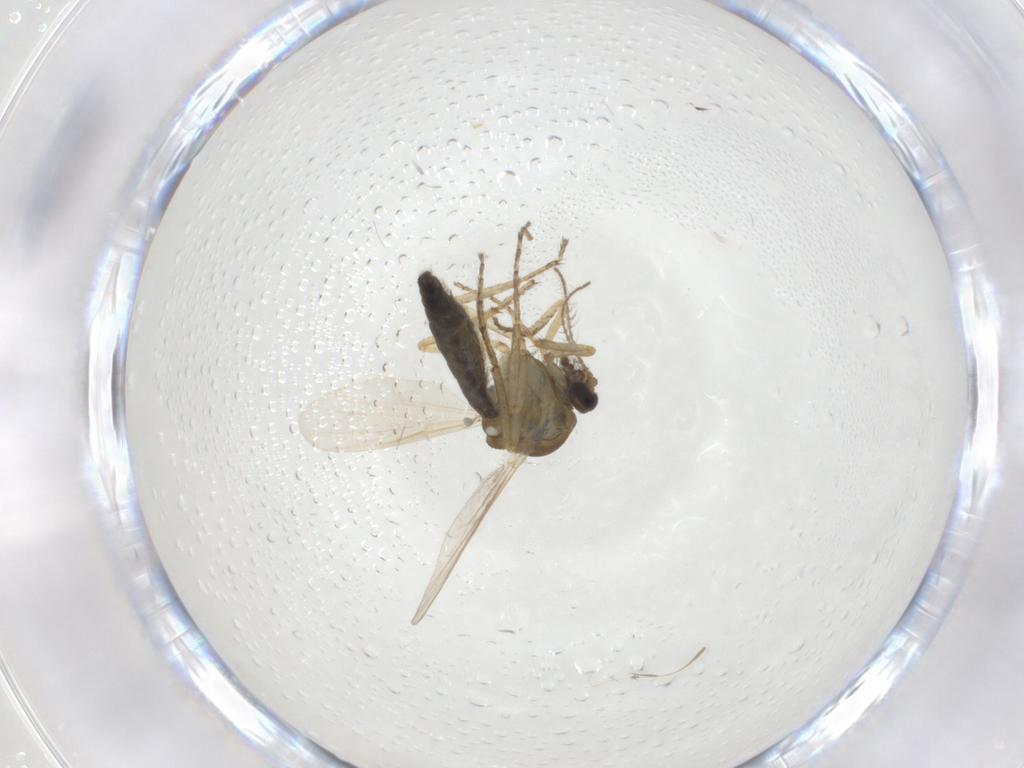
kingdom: Animalia
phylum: Arthropoda
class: Insecta
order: Diptera
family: Ceratopogonidae
